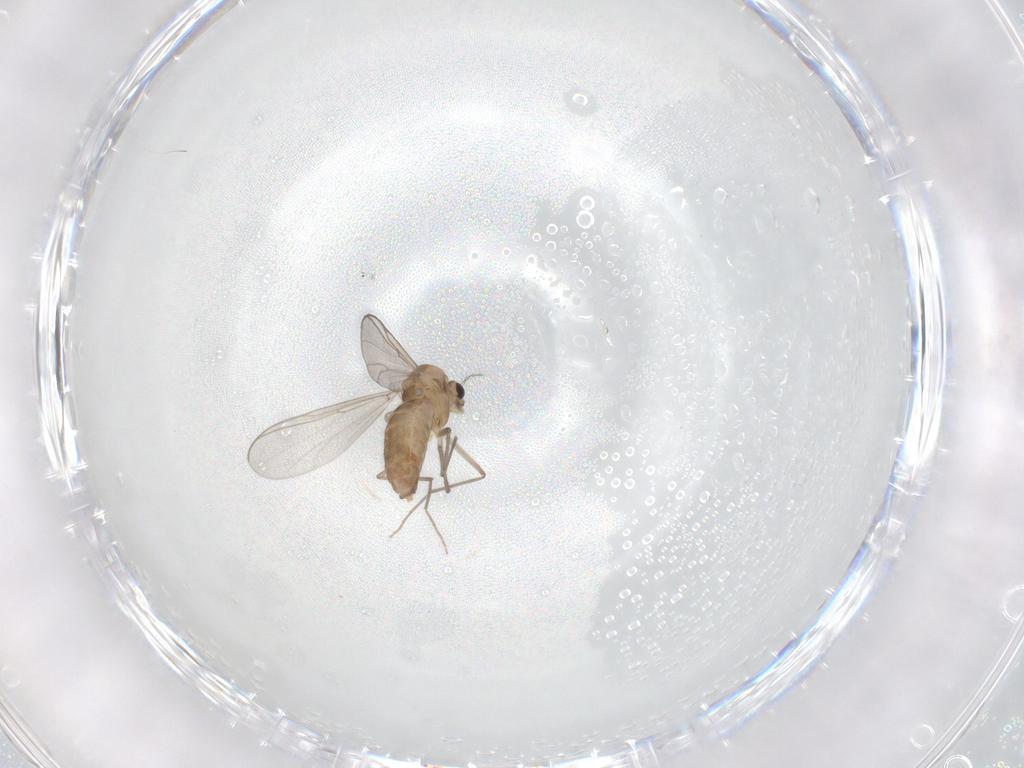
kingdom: Animalia
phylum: Arthropoda
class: Insecta
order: Diptera
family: Chironomidae
